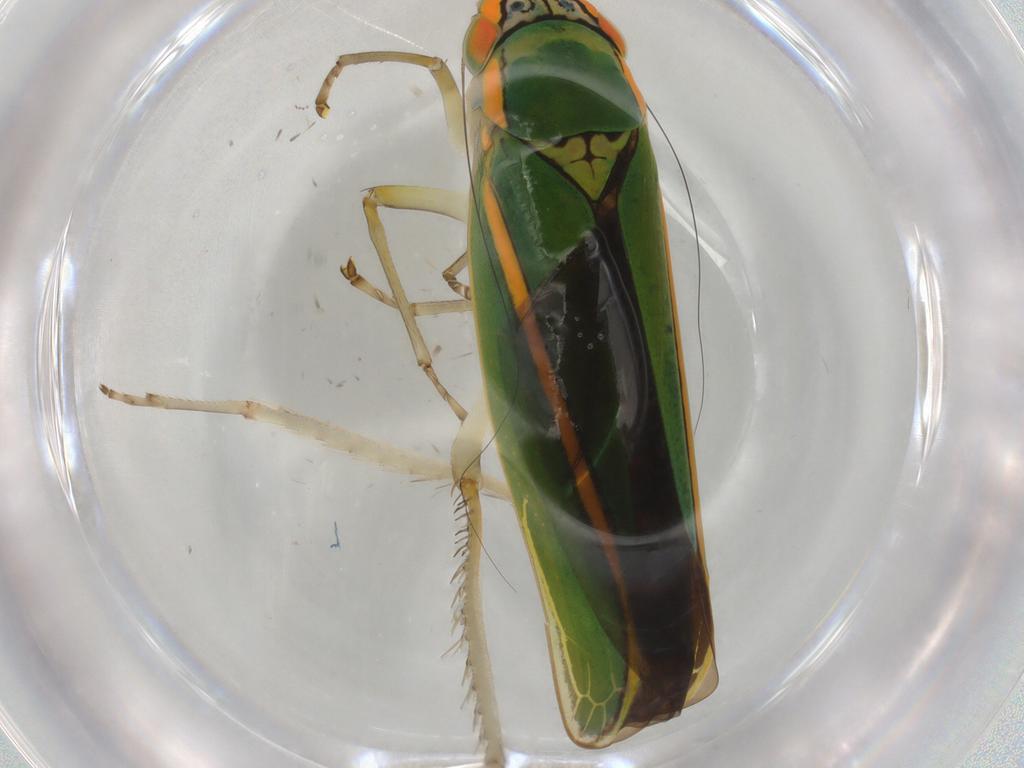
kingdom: Animalia
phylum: Arthropoda
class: Insecta
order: Hemiptera
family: Cicadellidae
